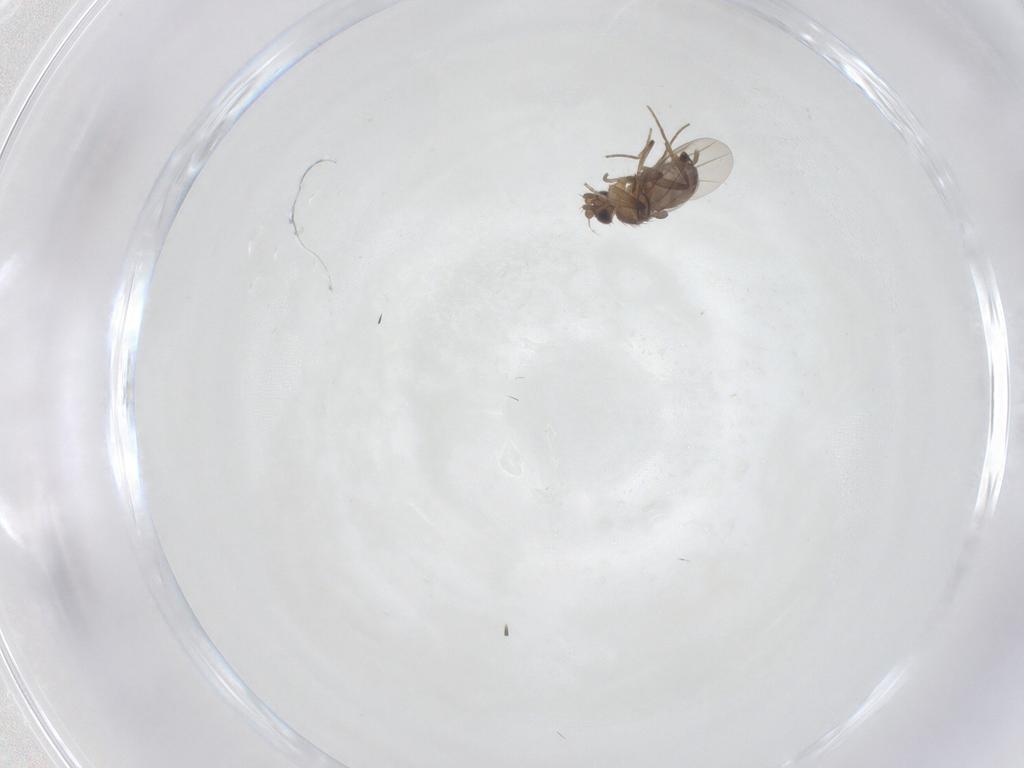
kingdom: Animalia
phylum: Arthropoda
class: Insecta
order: Diptera
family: Phoridae
